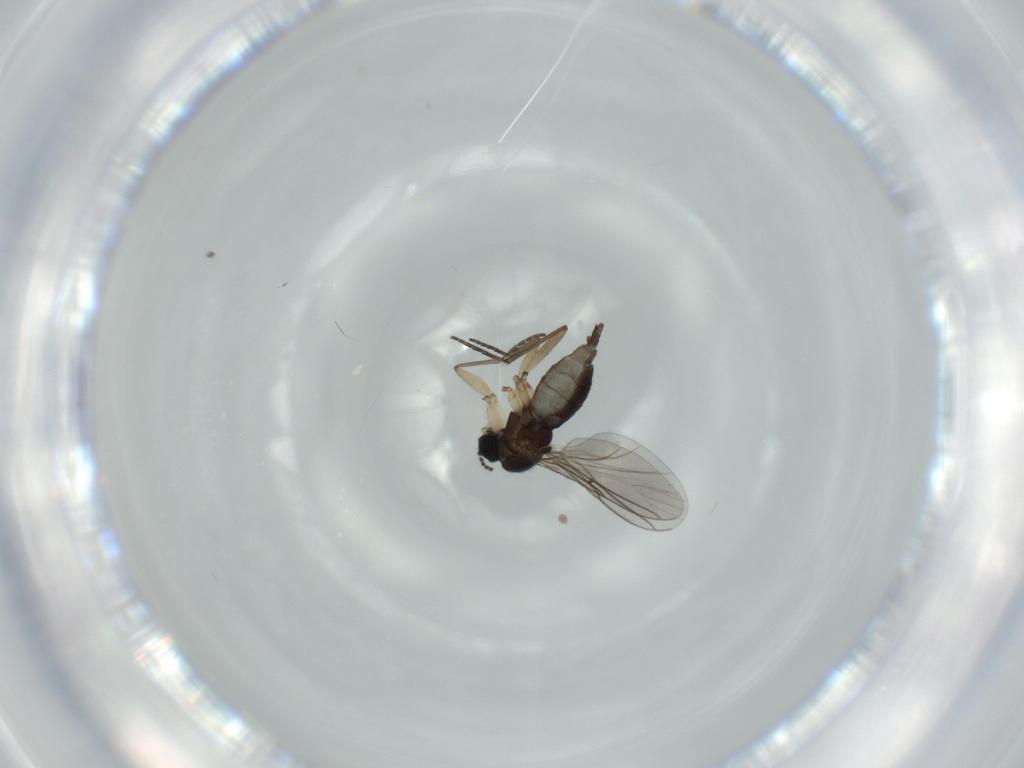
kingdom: Animalia
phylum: Arthropoda
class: Insecta
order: Diptera
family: Sciaridae
